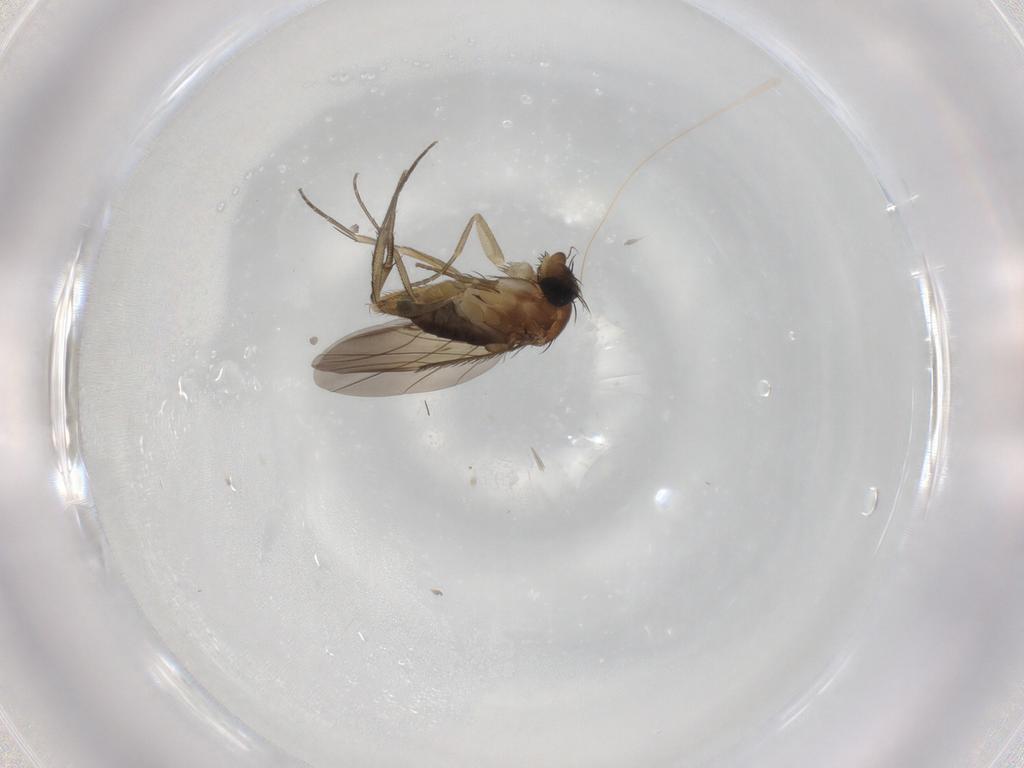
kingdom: Animalia
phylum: Arthropoda
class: Insecta
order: Diptera
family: Phoridae
